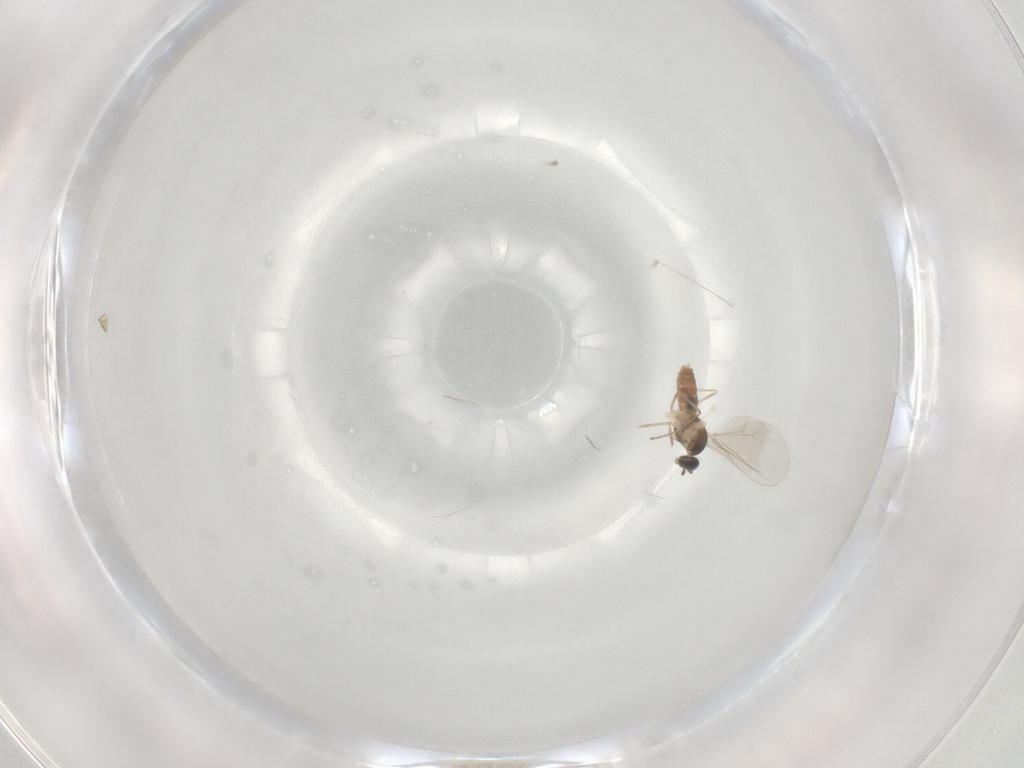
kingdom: Animalia
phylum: Arthropoda
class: Insecta
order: Diptera
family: Cecidomyiidae
